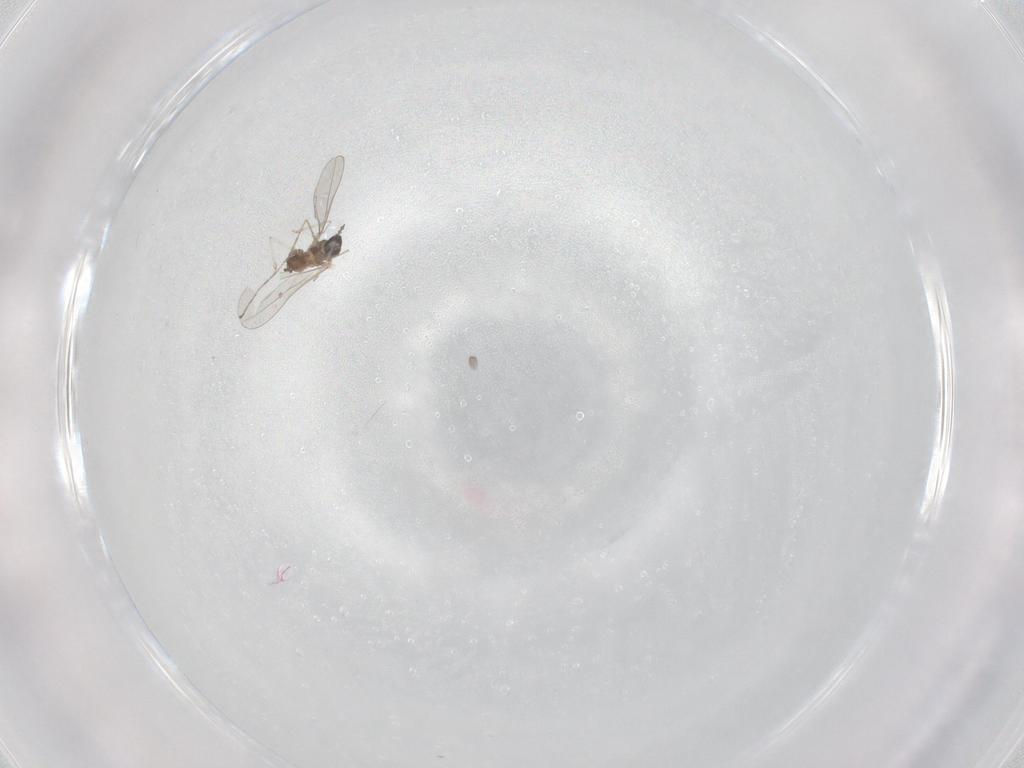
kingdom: Animalia
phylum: Arthropoda
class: Insecta
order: Diptera
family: Cecidomyiidae
